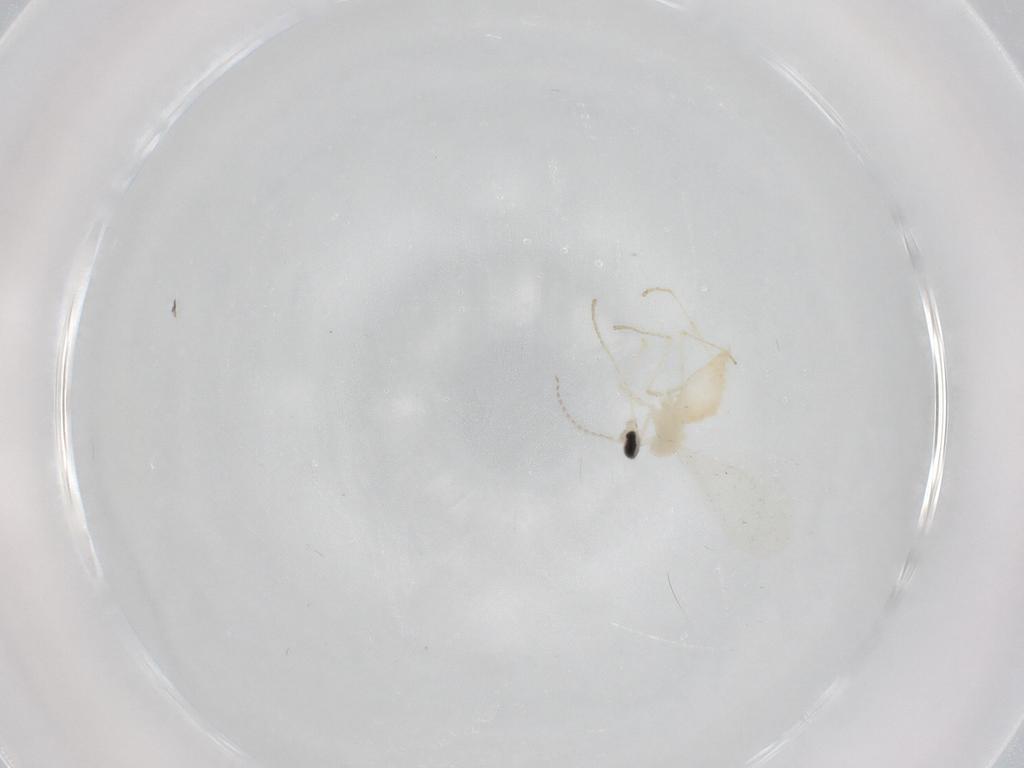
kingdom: Animalia
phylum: Arthropoda
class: Insecta
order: Diptera
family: Cecidomyiidae
